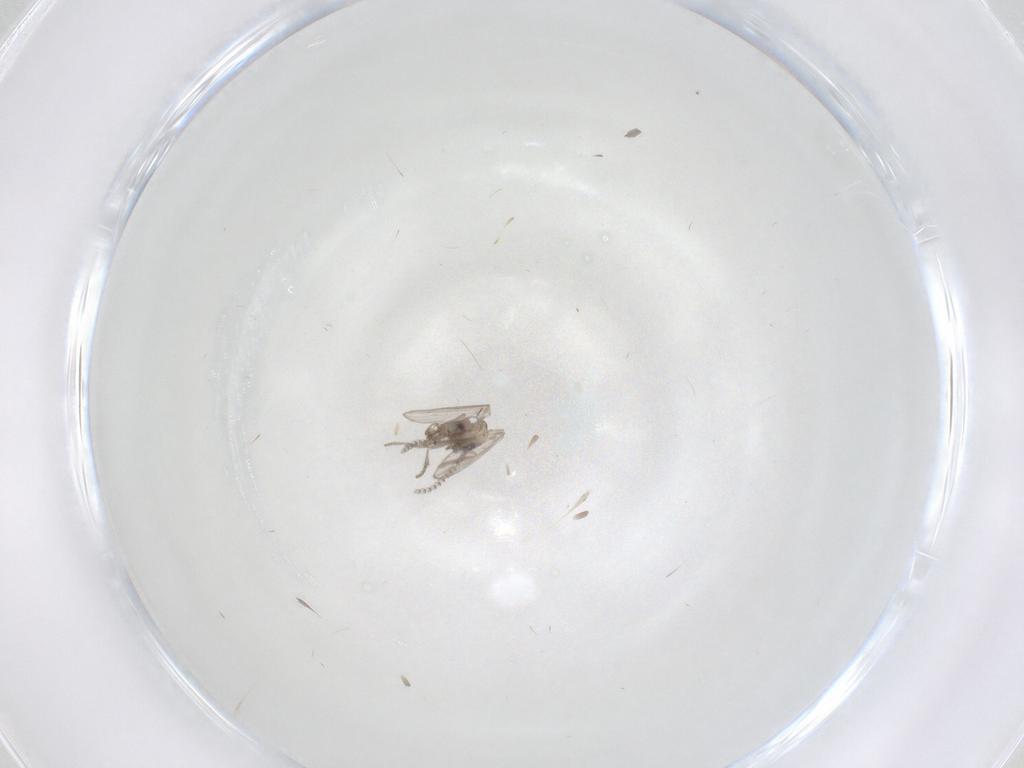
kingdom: Animalia
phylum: Arthropoda
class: Insecta
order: Diptera
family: Psychodidae
